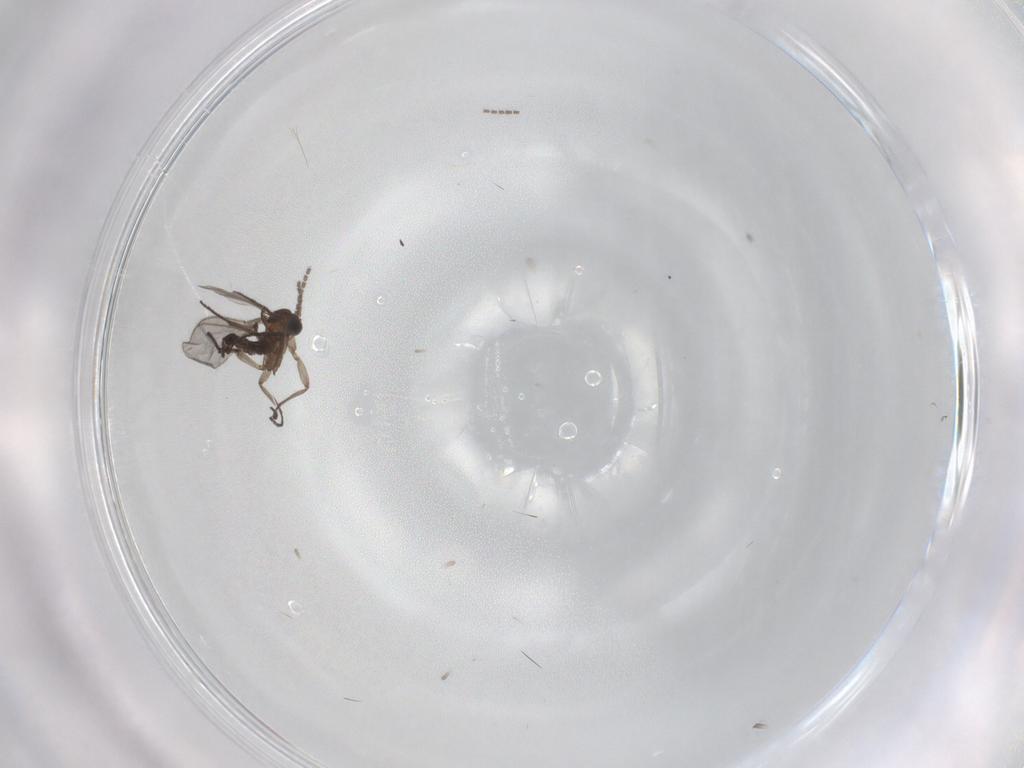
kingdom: Animalia
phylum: Arthropoda
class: Insecta
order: Diptera
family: Sciaridae
